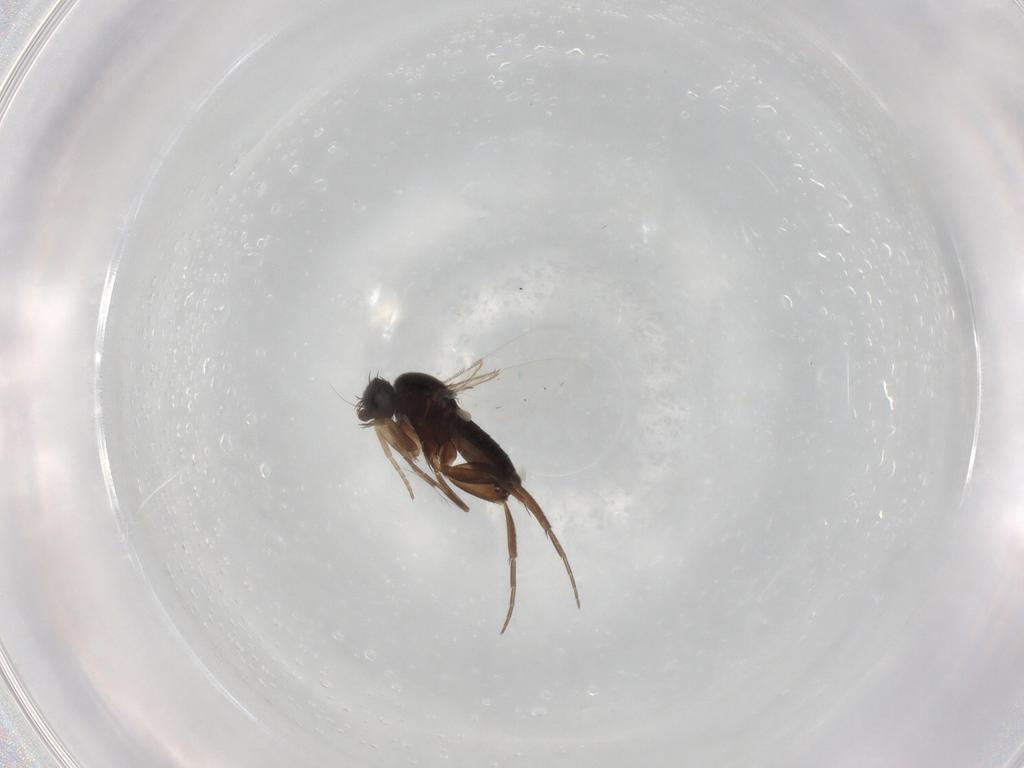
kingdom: Animalia
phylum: Arthropoda
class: Insecta
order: Diptera
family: Phoridae
